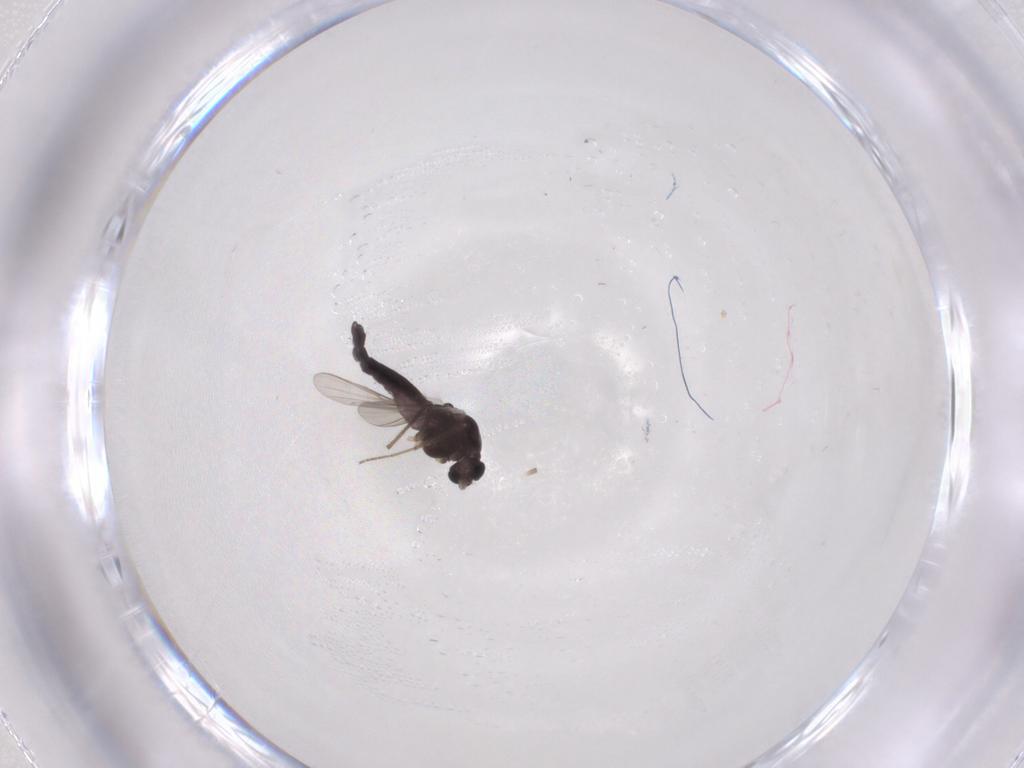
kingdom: Animalia
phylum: Arthropoda
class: Insecta
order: Diptera
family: Chironomidae
